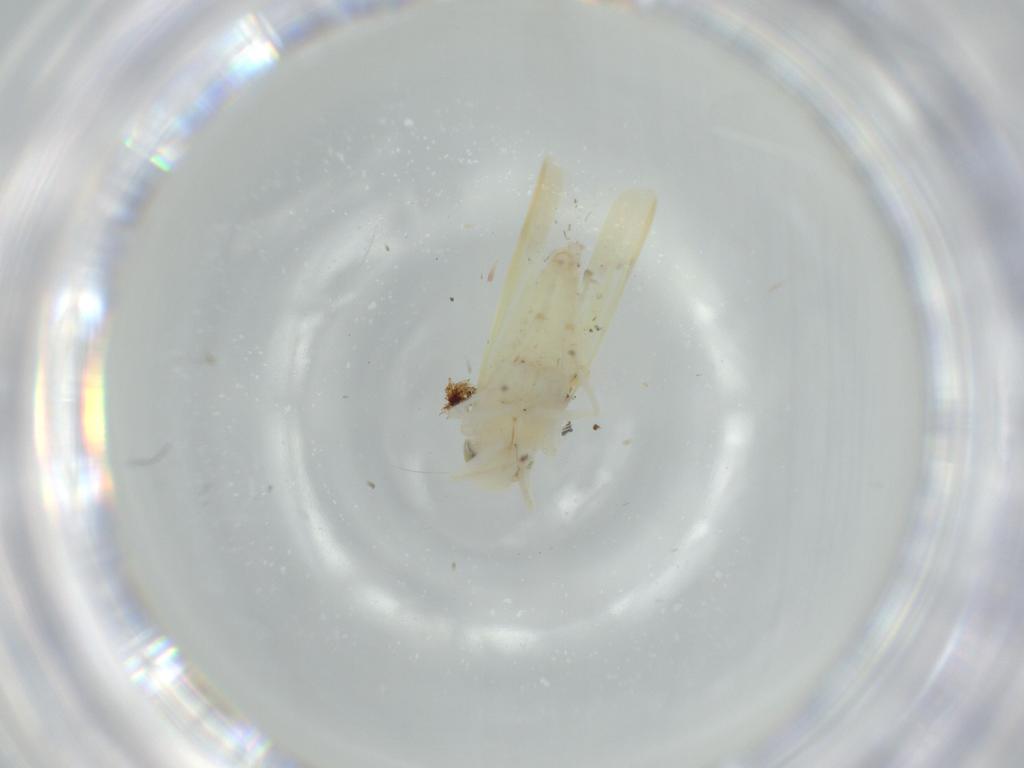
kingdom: Animalia
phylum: Arthropoda
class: Insecta
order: Hemiptera
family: Cicadellidae
